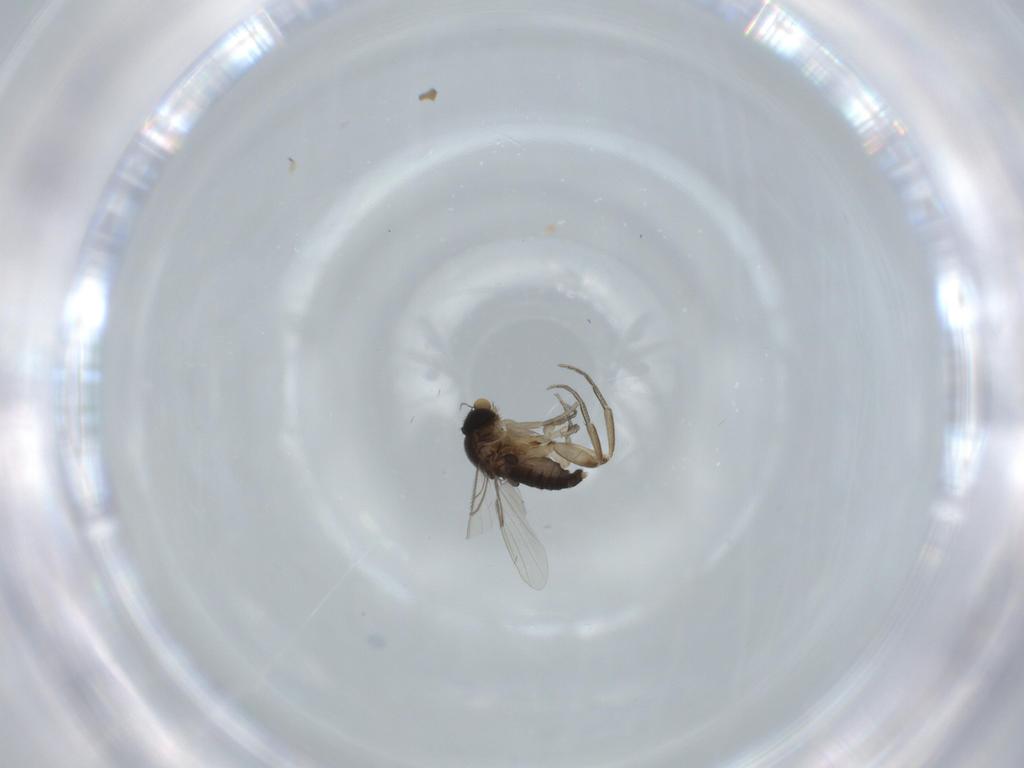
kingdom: Animalia
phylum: Arthropoda
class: Insecta
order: Diptera
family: Phoridae
